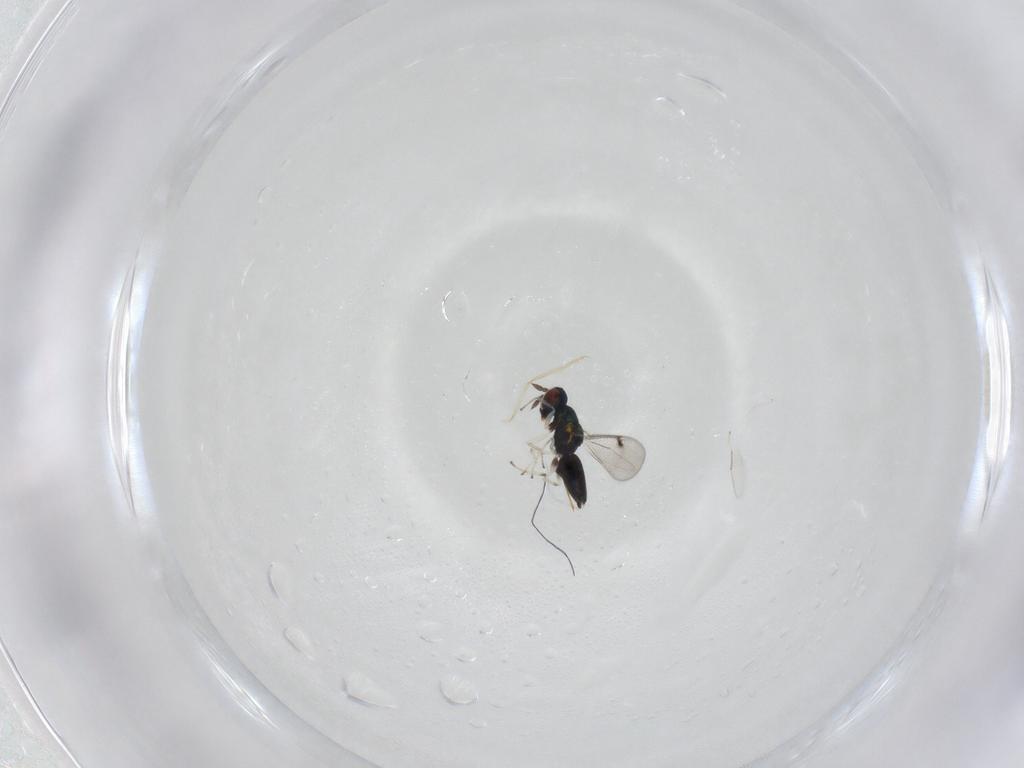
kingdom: Animalia
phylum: Arthropoda
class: Insecta
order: Hymenoptera
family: Eulophidae
